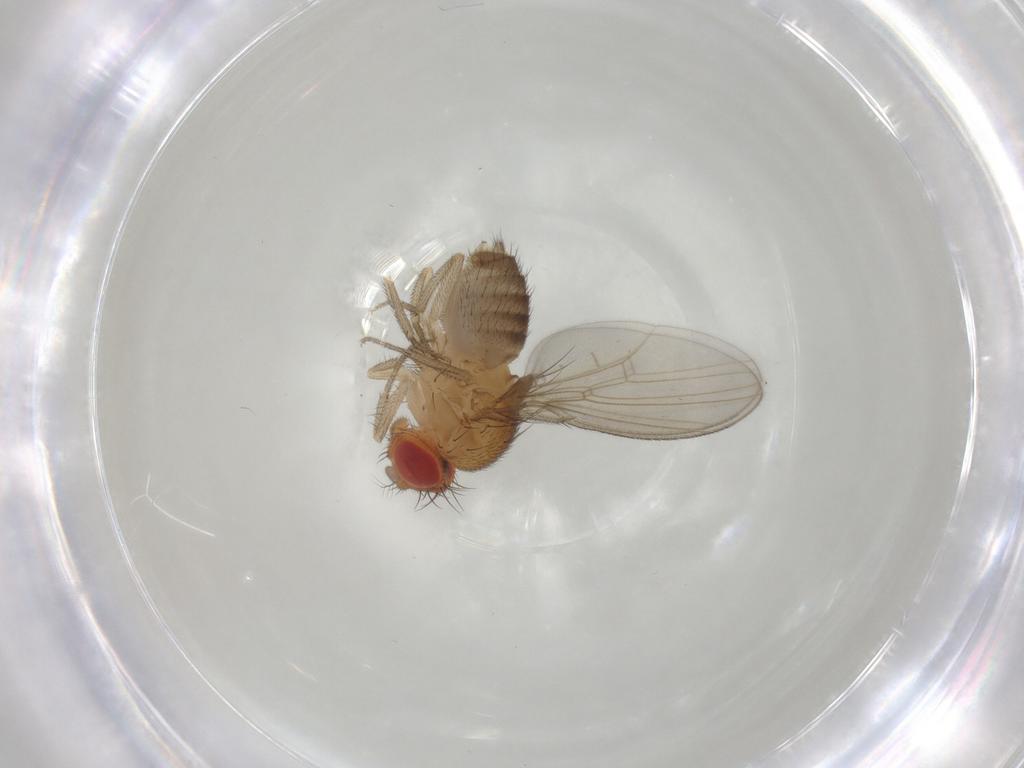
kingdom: Animalia
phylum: Arthropoda
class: Insecta
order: Diptera
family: Drosophilidae
